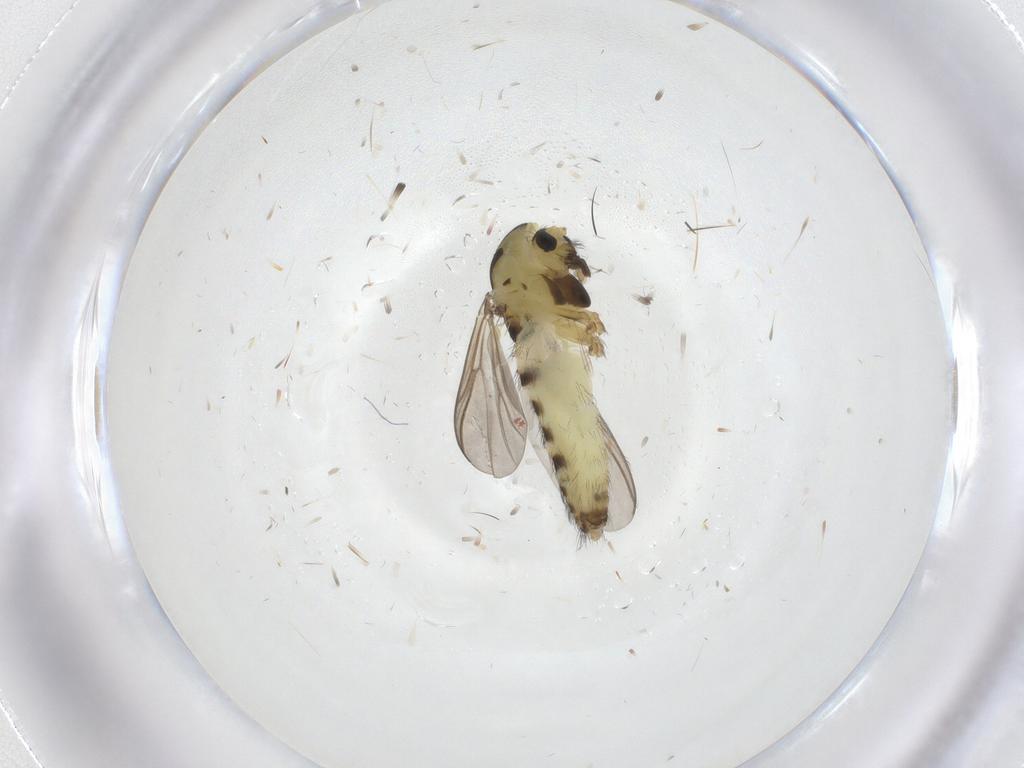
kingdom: Animalia
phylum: Arthropoda
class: Insecta
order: Diptera
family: Chironomidae
